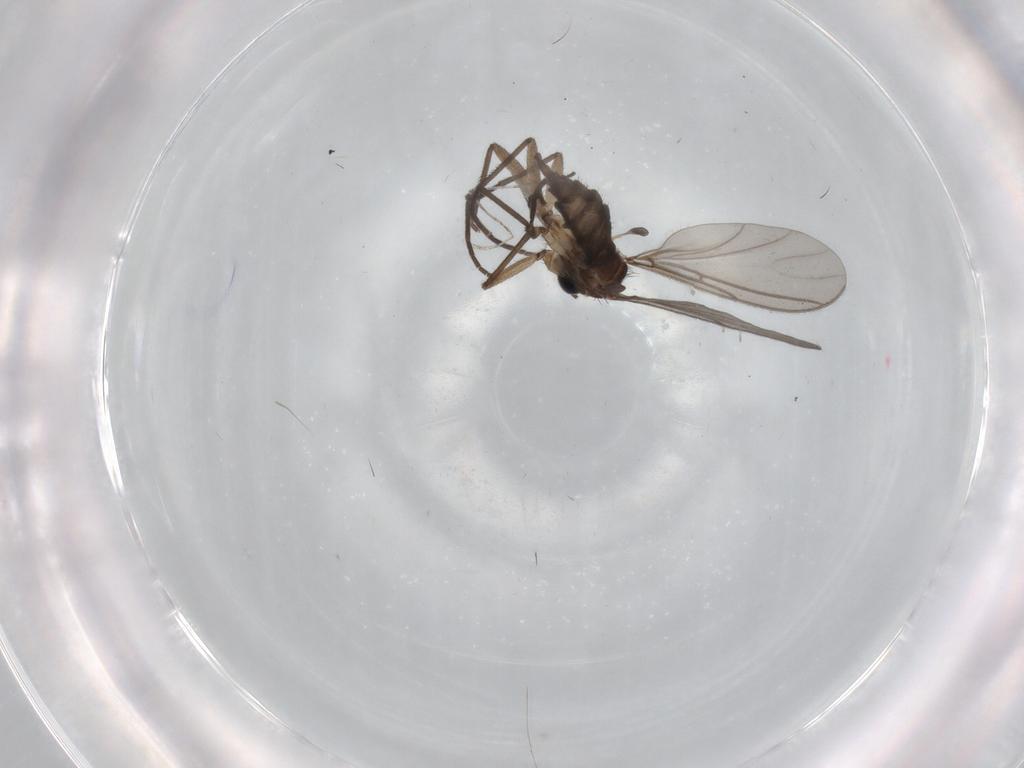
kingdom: Animalia
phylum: Arthropoda
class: Insecta
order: Diptera
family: Sciaridae
